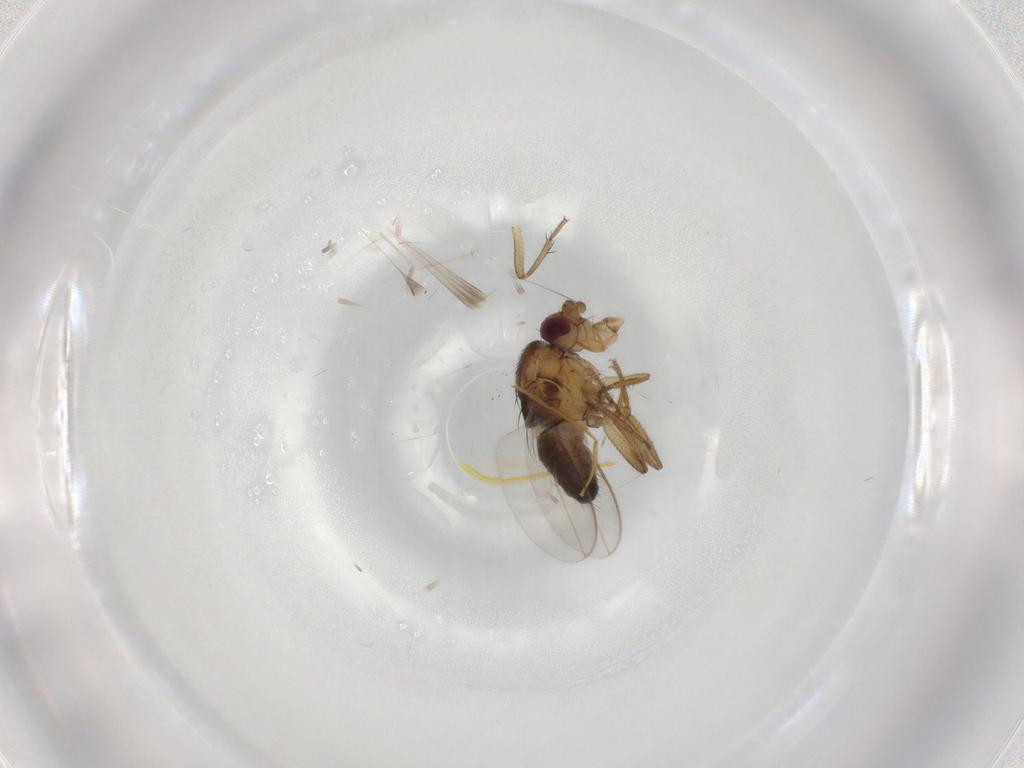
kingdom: Animalia
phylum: Arthropoda
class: Insecta
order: Diptera
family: Sphaeroceridae
